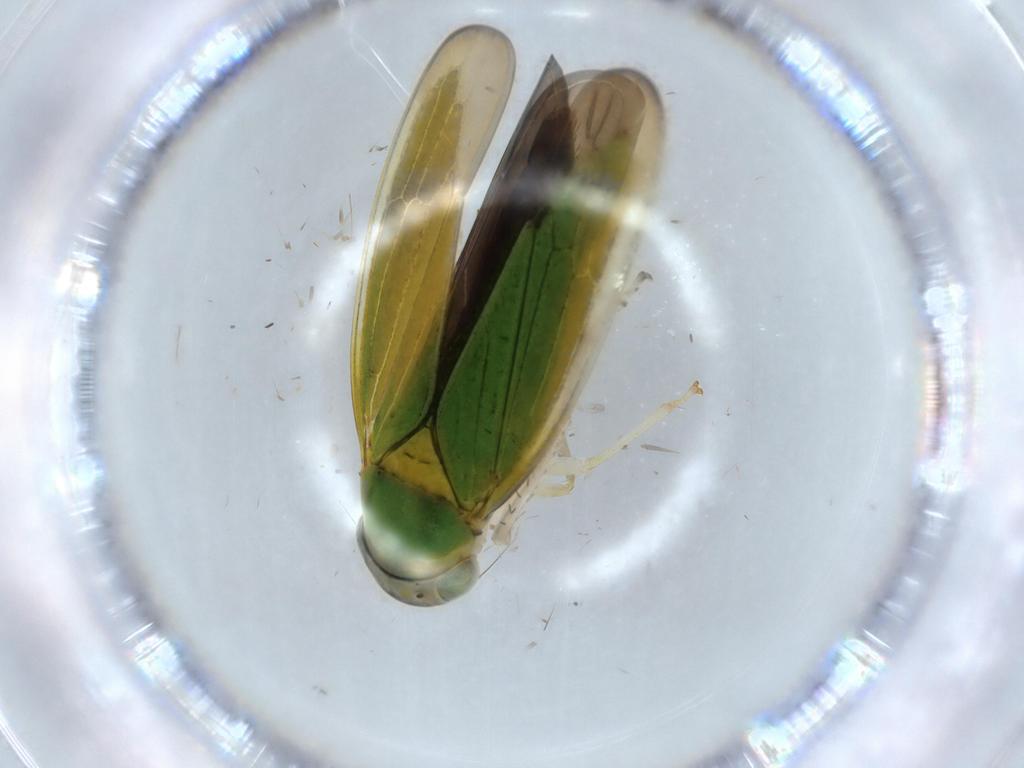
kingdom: Animalia
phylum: Arthropoda
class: Insecta
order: Hemiptera
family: Cicadellidae
